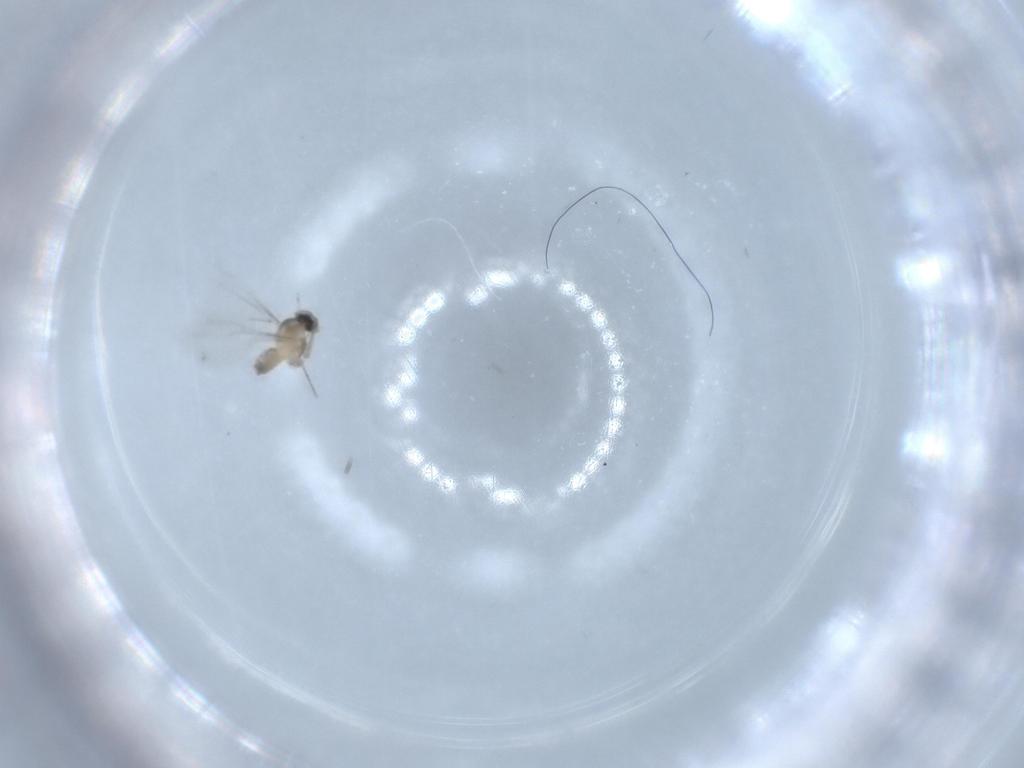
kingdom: Animalia
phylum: Arthropoda
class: Insecta
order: Diptera
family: Cecidomyiidae
